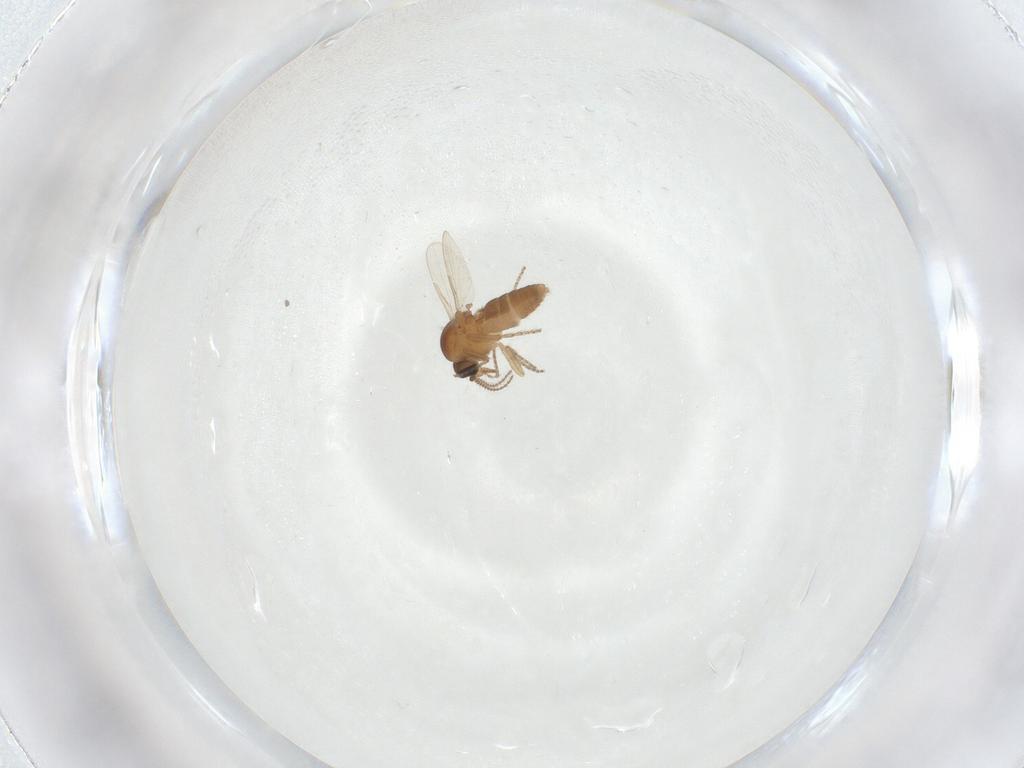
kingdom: Animalia
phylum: Arthropoda
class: Insecta
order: Diptera
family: Ceratopogonidae
